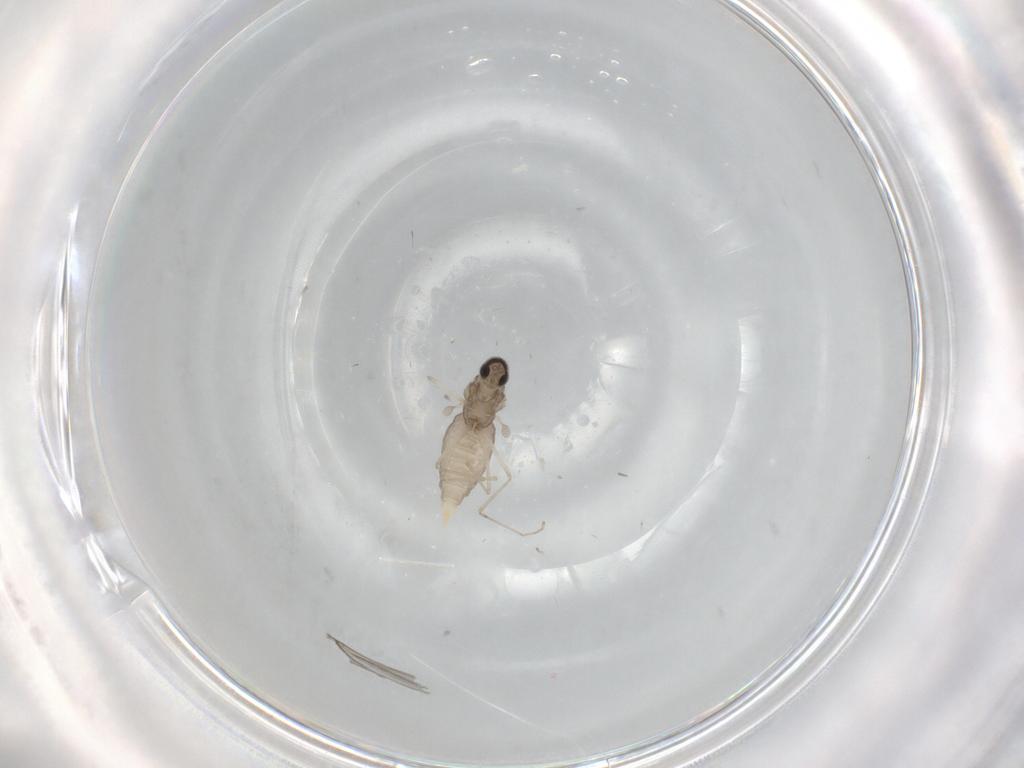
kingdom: Animalia
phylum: Arthropoda
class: Insecta
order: Diptera
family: Cecidomyiidae
